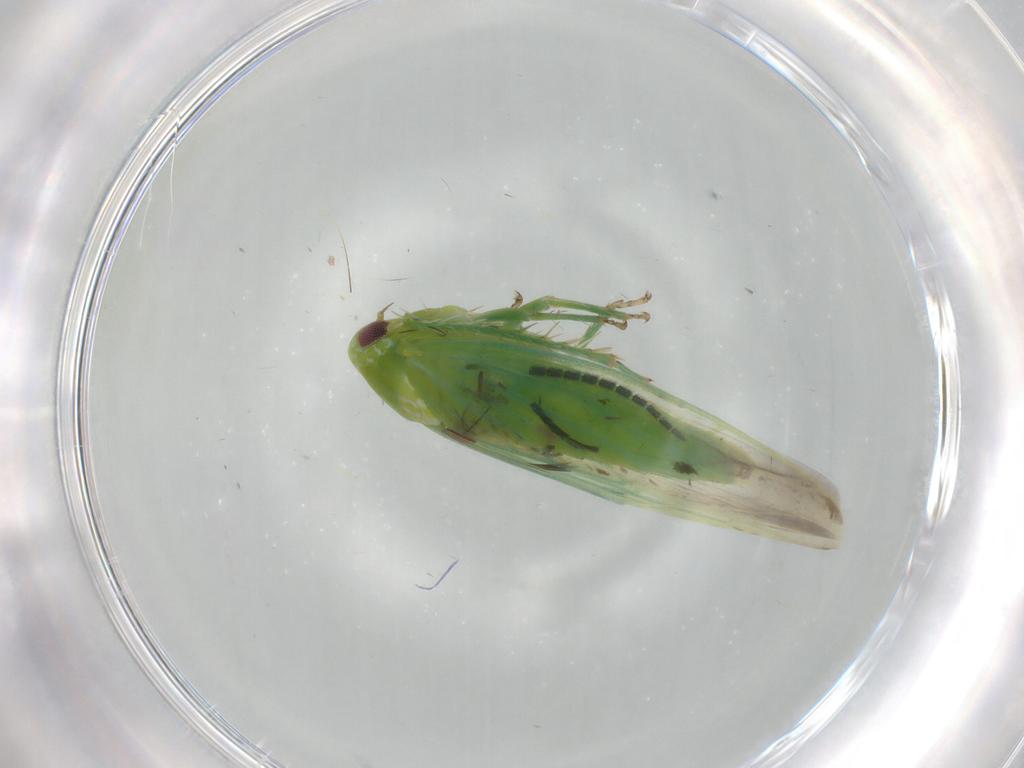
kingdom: Animalia
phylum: Arthropoda
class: Insecta
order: Hemiptera
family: Cicadellidae
